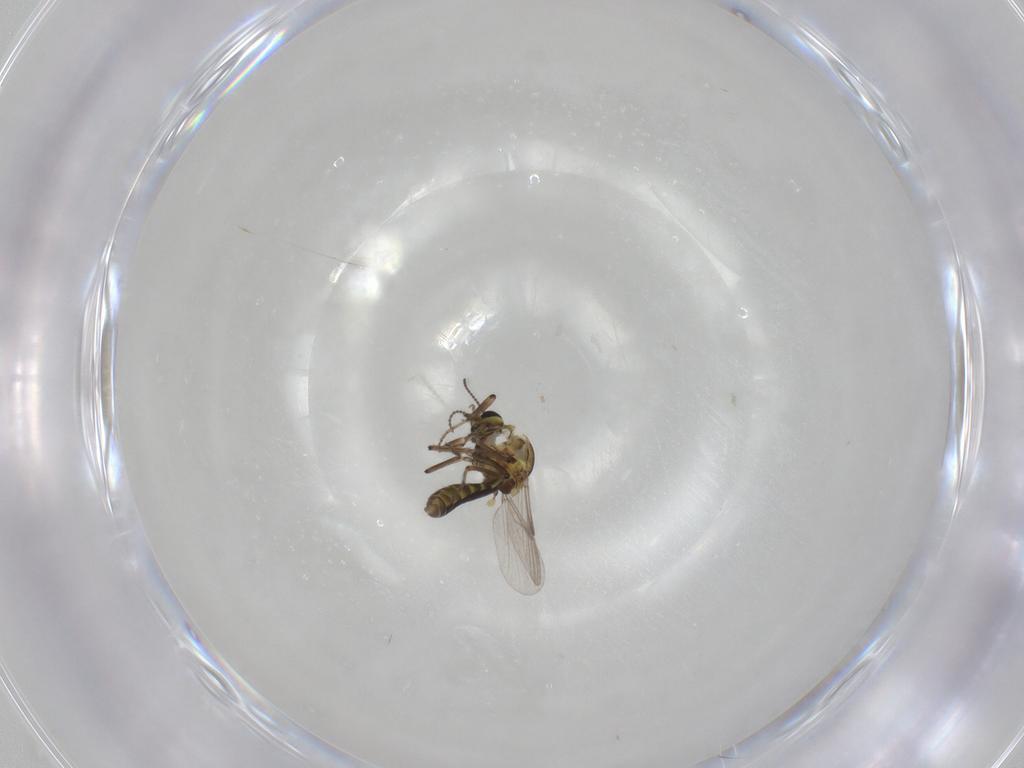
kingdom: Animalia
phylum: Arthropoda
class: Insecta
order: Diptera
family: Ceratopogonidae
